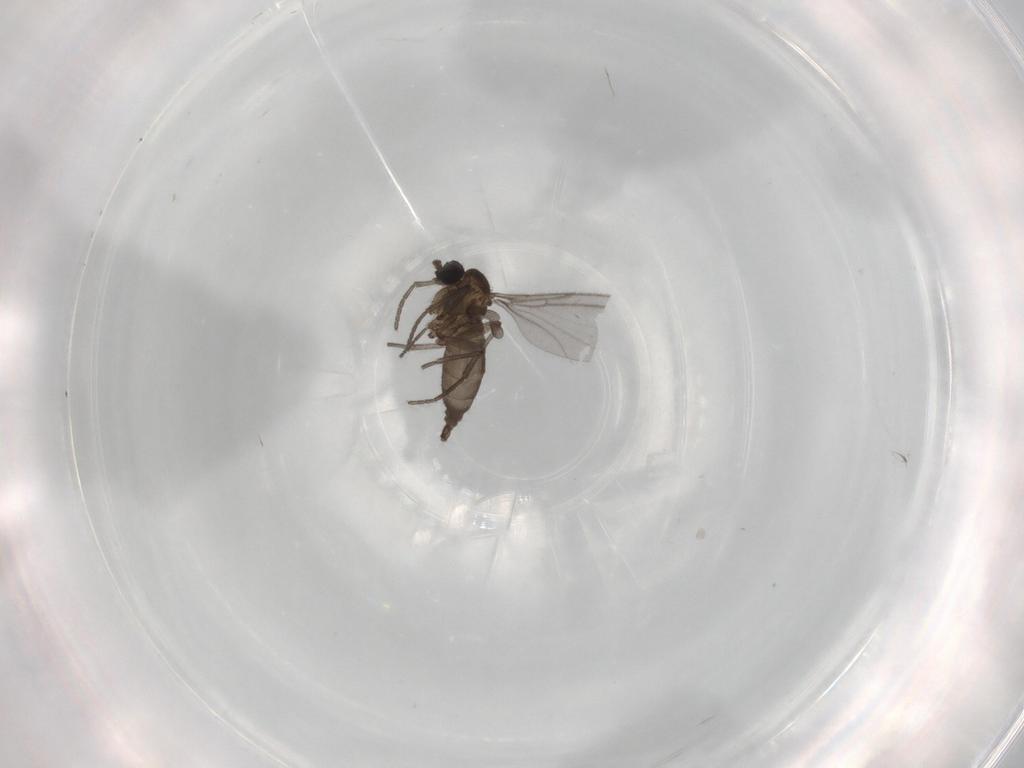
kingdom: Animalia
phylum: Arthropoda
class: Insecta
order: Diptera
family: Sciaridae
